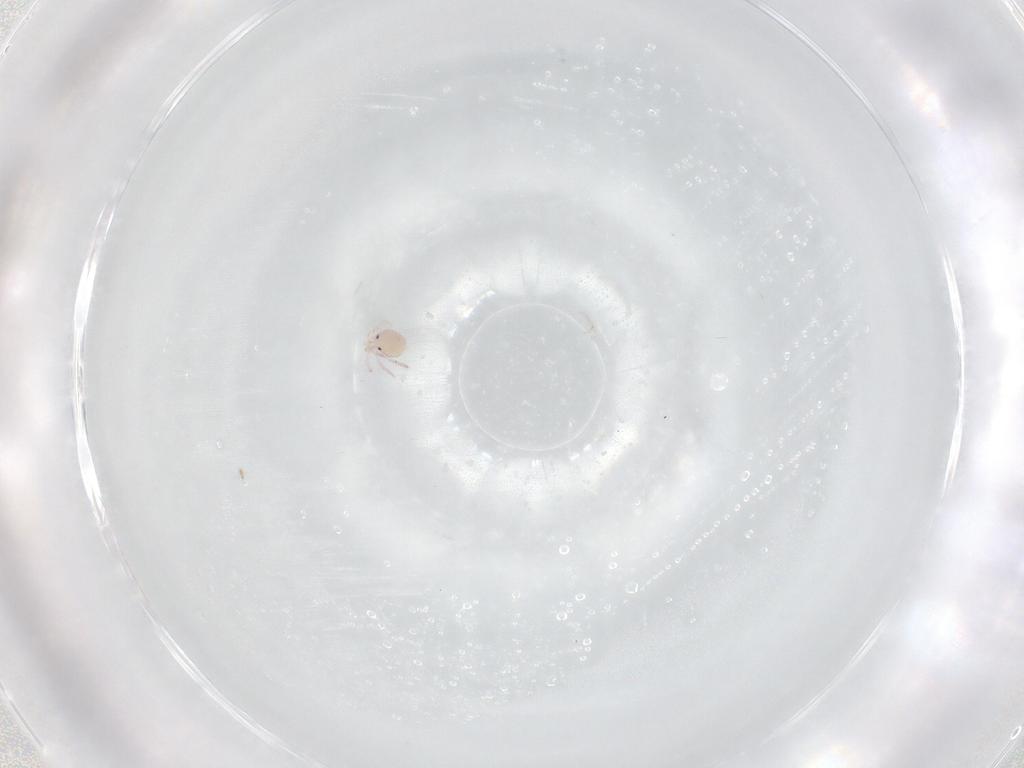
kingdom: Animalia
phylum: Arthropoda
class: Arachnida
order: Trombidiformes
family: Lebertiidae
